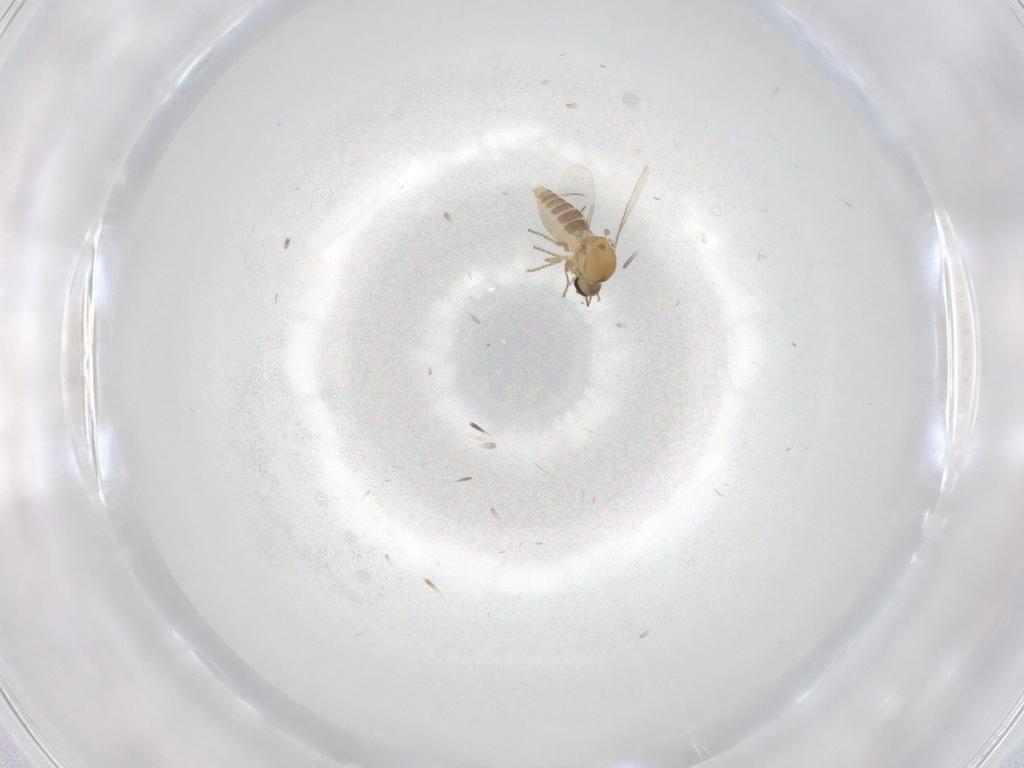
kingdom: Animalia
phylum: Arthropoda
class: Insecta
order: Diptera
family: Ceratopogonidae
